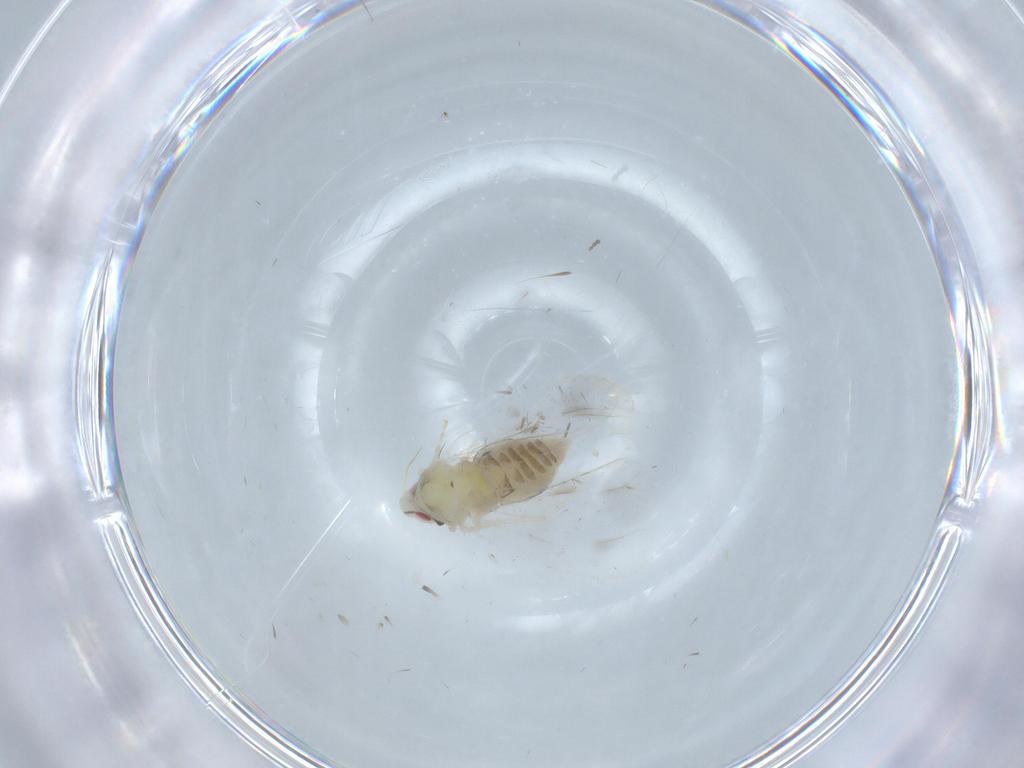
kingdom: Animalia
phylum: Arthropoda
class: Insecta
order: Hemiptera
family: Aleyrodidae
